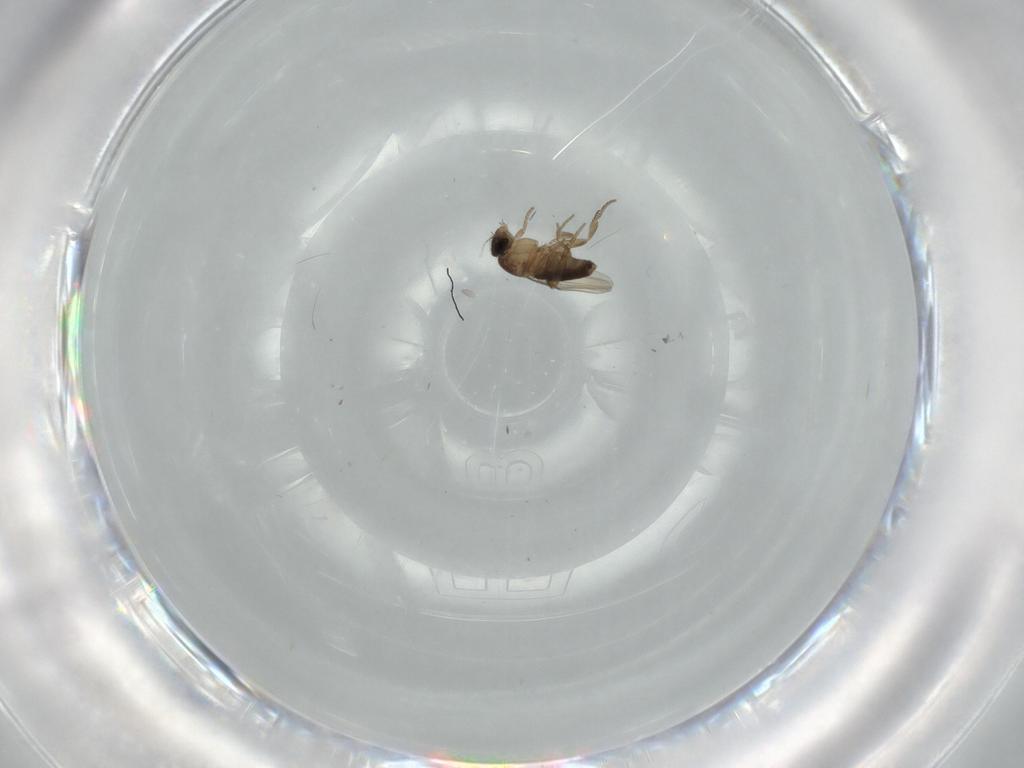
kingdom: Animalia
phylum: Arthropoda
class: Insecta
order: Diptera
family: Phoridae
